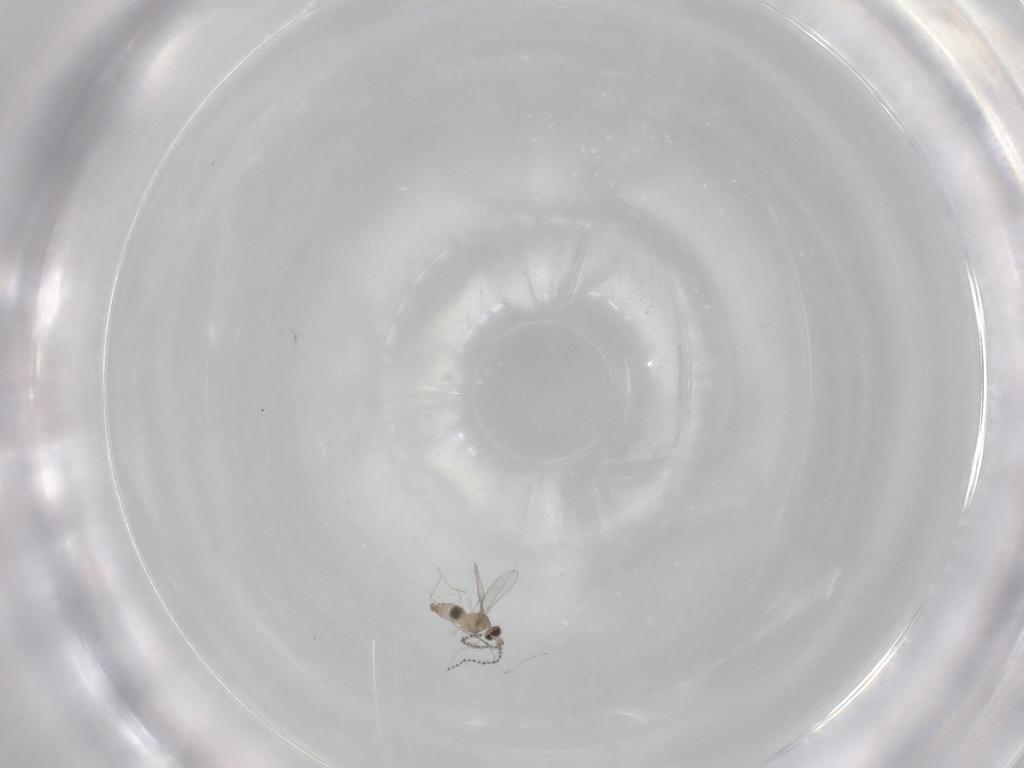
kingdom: Animalia
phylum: Arthropoda
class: Insecta
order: Diptera
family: Cecidomyiidae
